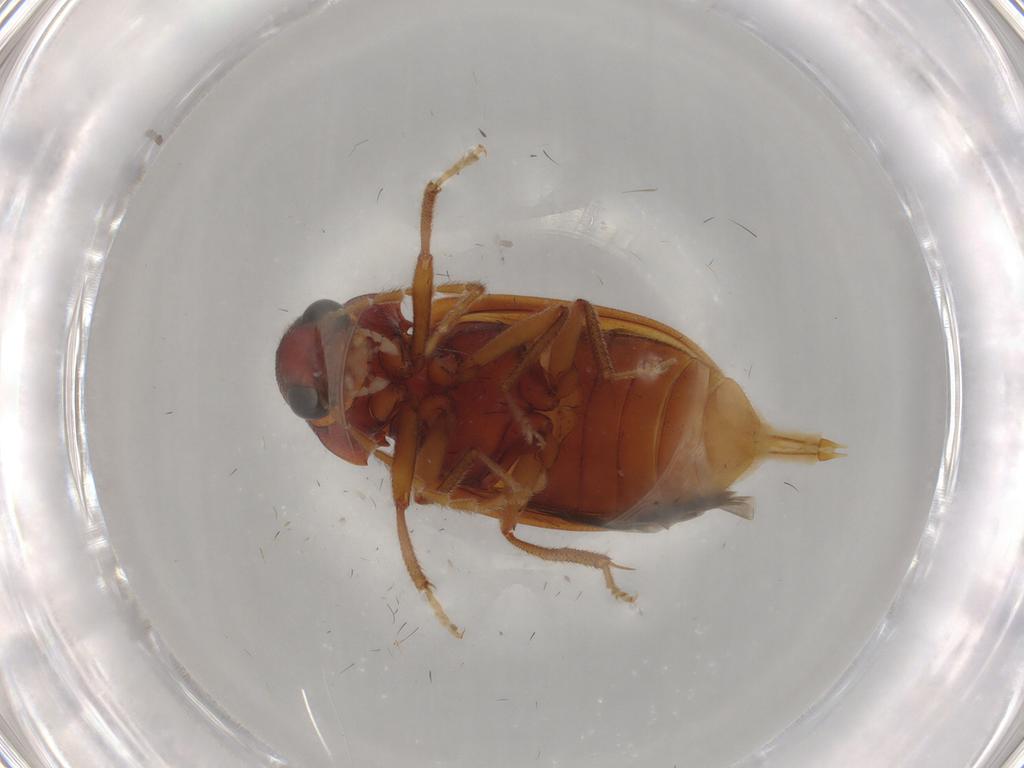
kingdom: Animalia
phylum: Arthropoda
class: Insecta
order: Coleoptera
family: Ptilodactylidae
